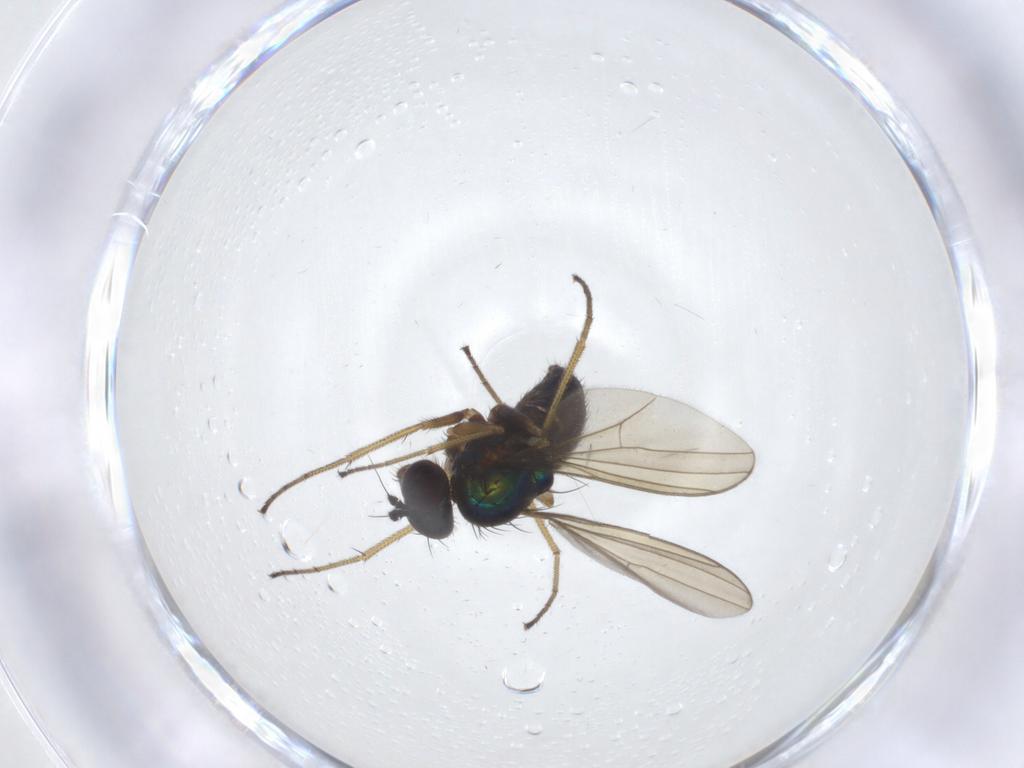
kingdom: Animalia
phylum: Arthropoda
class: Insecta
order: Diptera
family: Dolichopodidae
